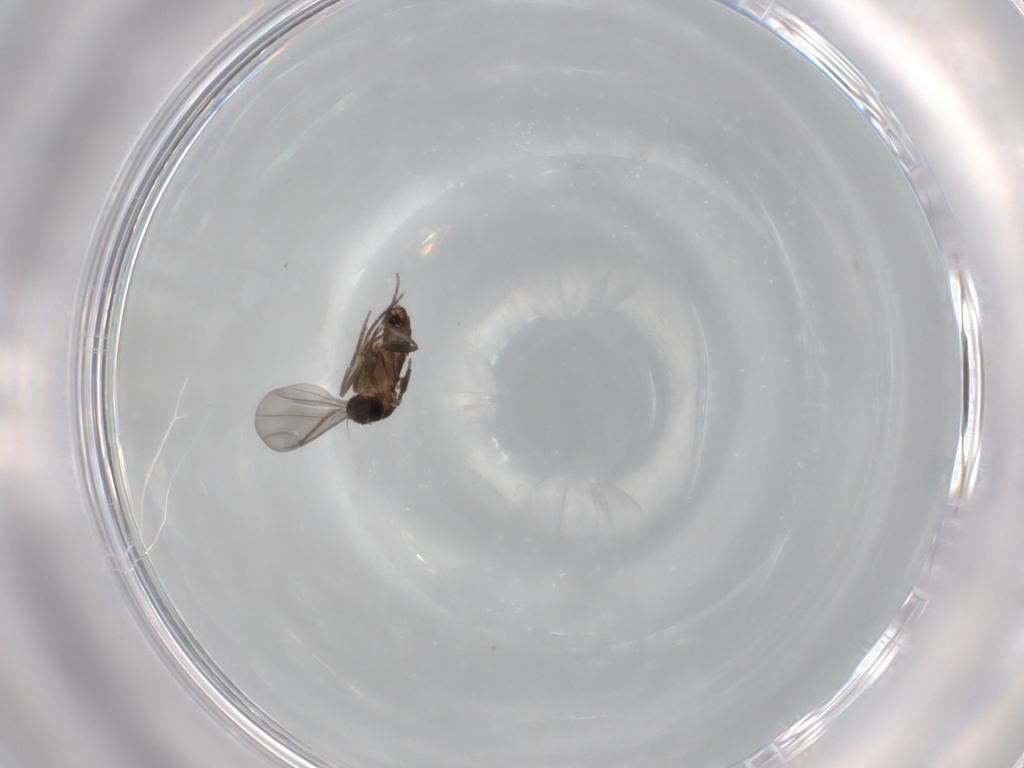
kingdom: Animalia
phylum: Arthropoda
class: Insecta
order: Diptera
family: Phoridae
